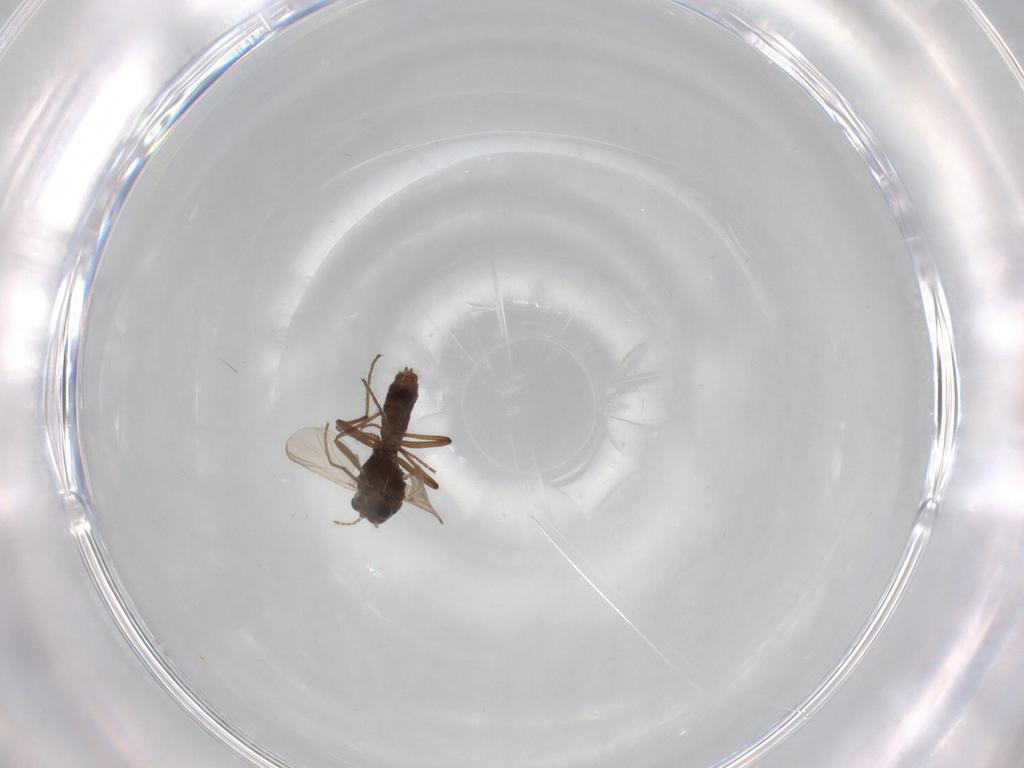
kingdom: Animalia
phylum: Arthropoda
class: Insecta
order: Diptera
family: Chironomidae
